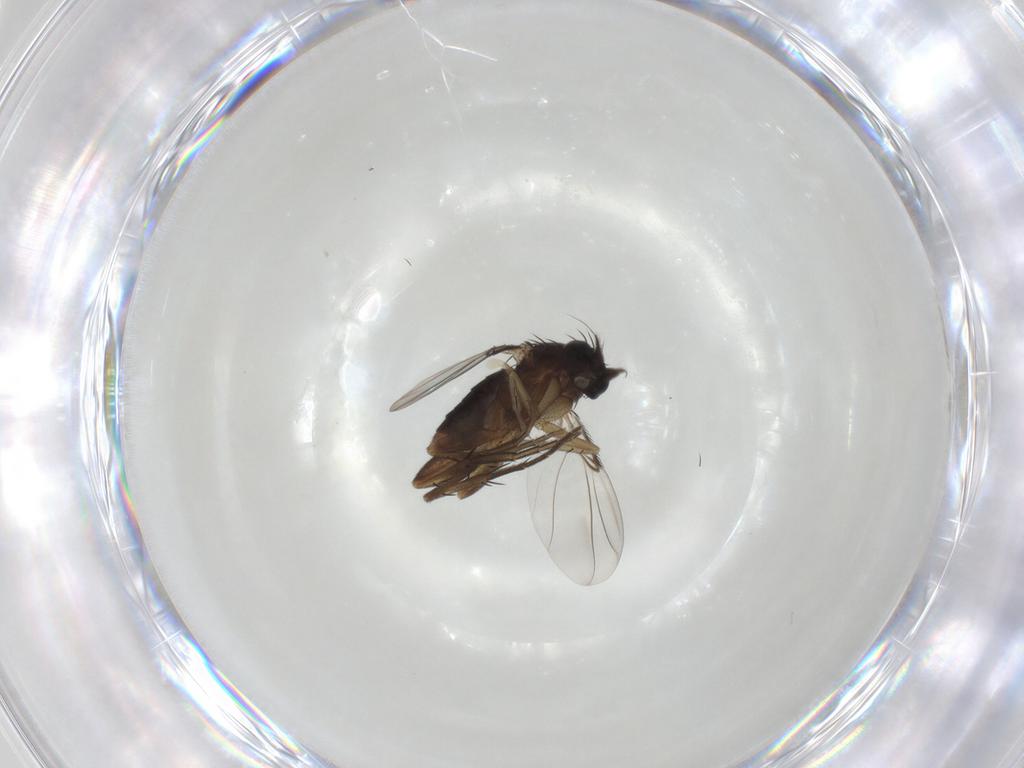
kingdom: Animalia
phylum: Arthropoda
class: Insecta
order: Diptera
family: Phoridae
